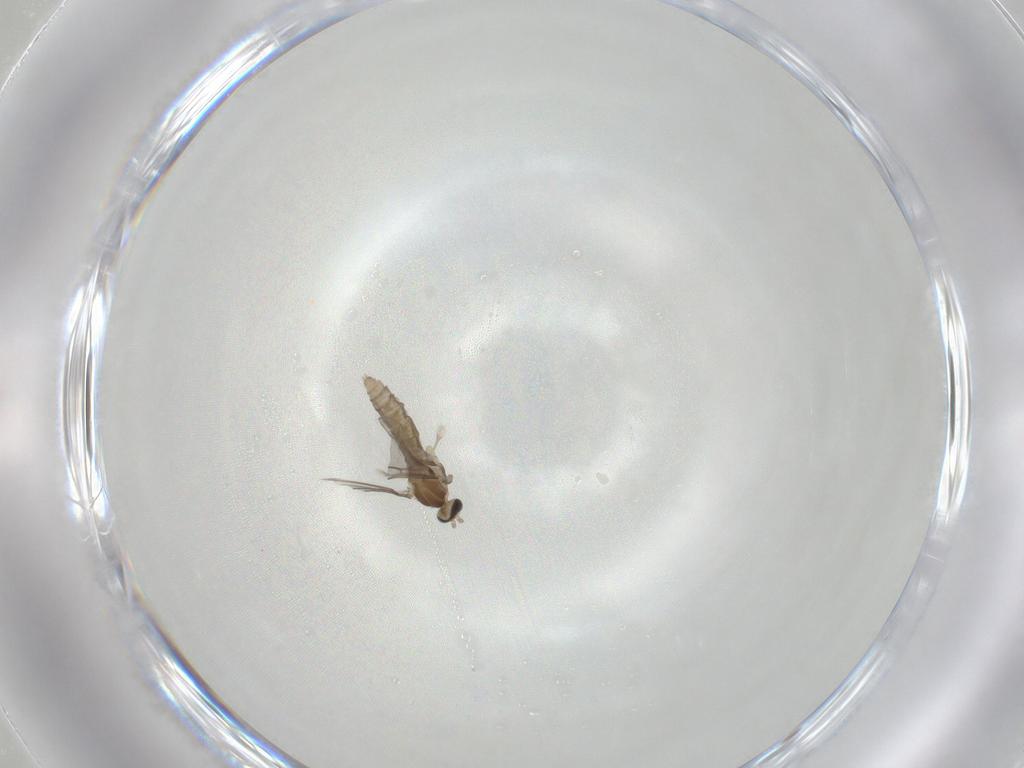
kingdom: Animalia
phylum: Arthropoda
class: Insecta
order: Diptera
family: Cecidomyiidae
